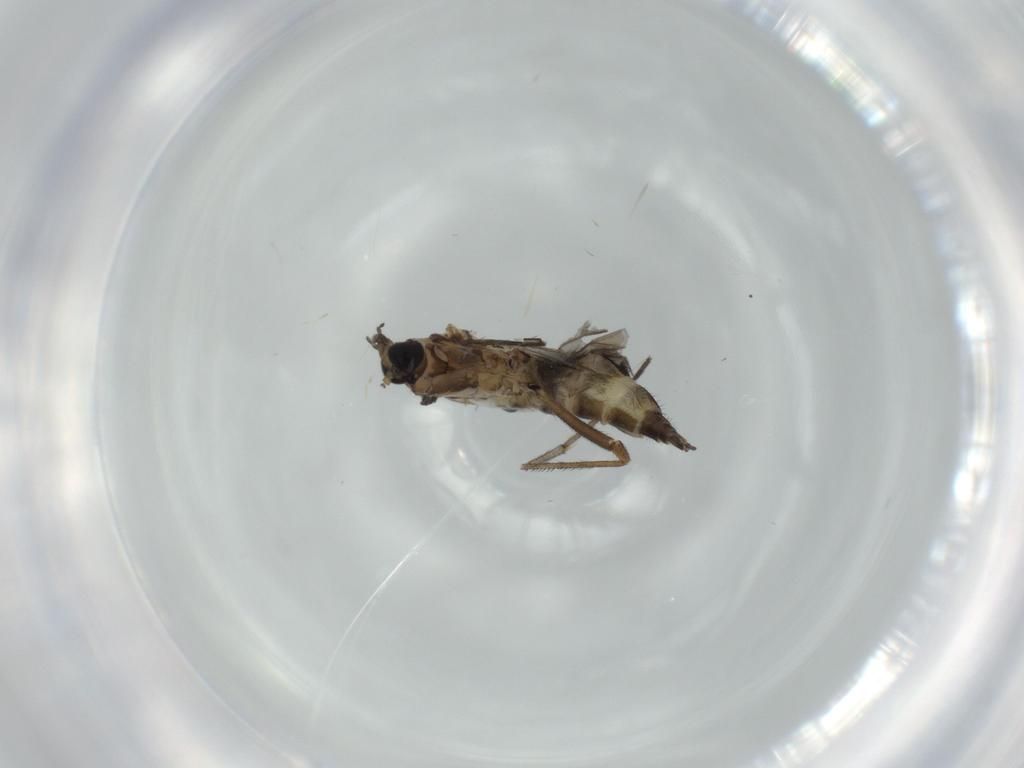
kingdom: Animalia
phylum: Arthropoda
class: Insecta
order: Diptera
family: Sciaridae
